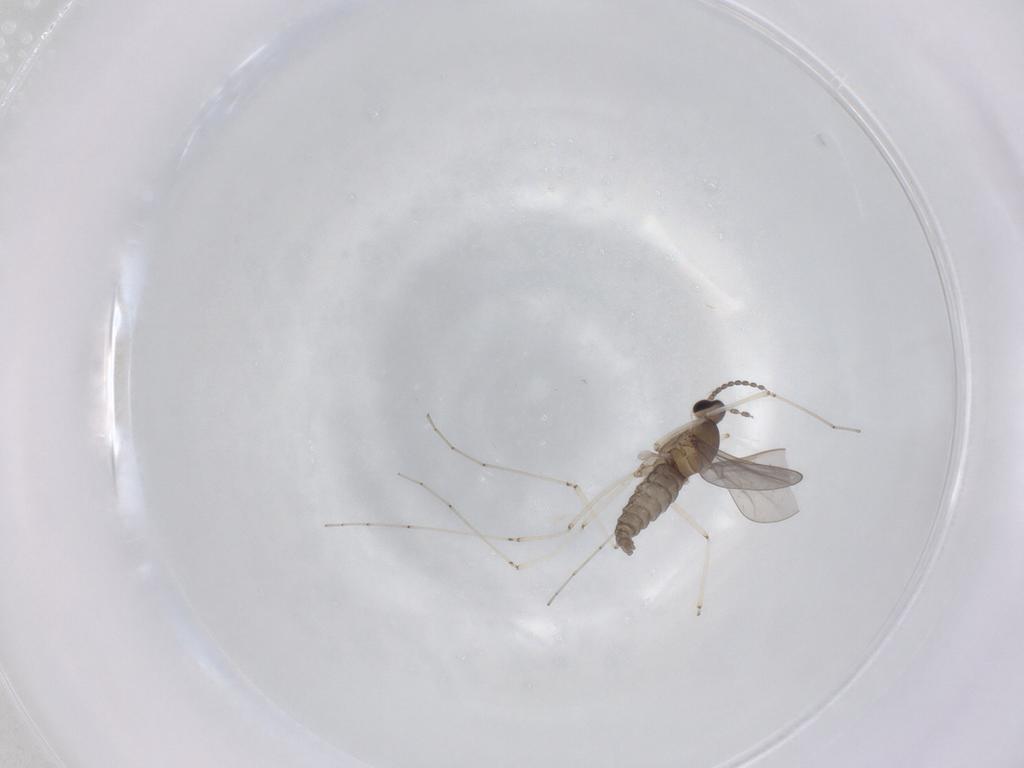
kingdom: Animalia
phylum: Arthropoda
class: Insecta
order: Diptera
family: Cecidomyiidae
